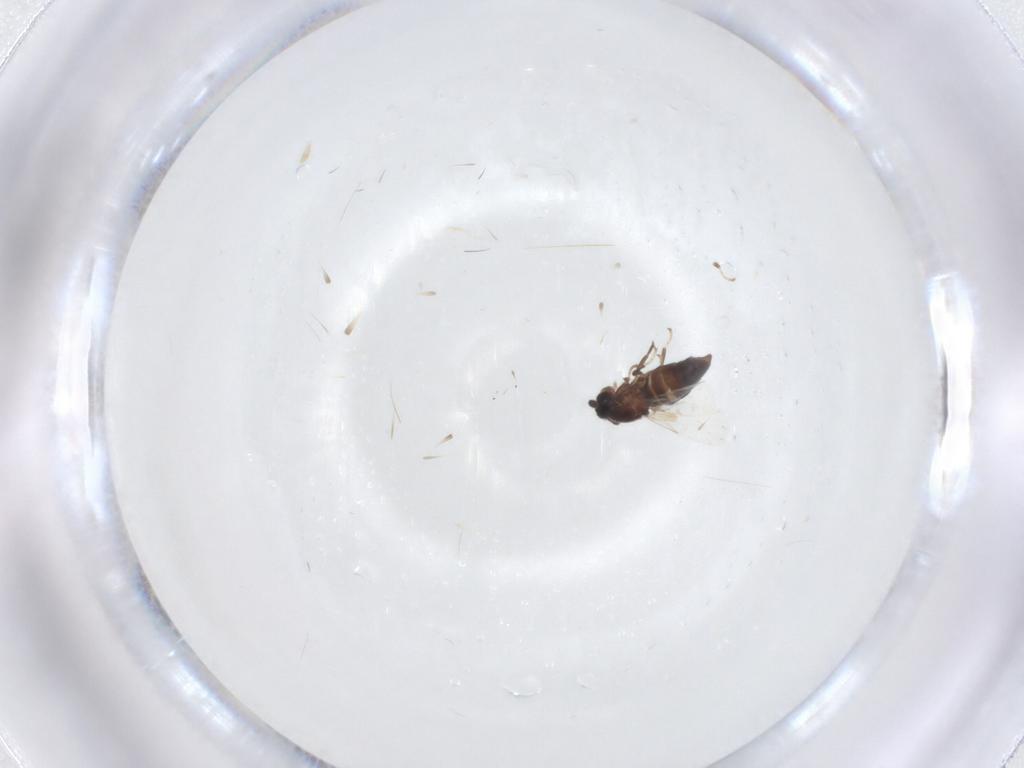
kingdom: Animalia
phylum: Arthropoda
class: Insecta
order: Diptera
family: Scatopsidae
